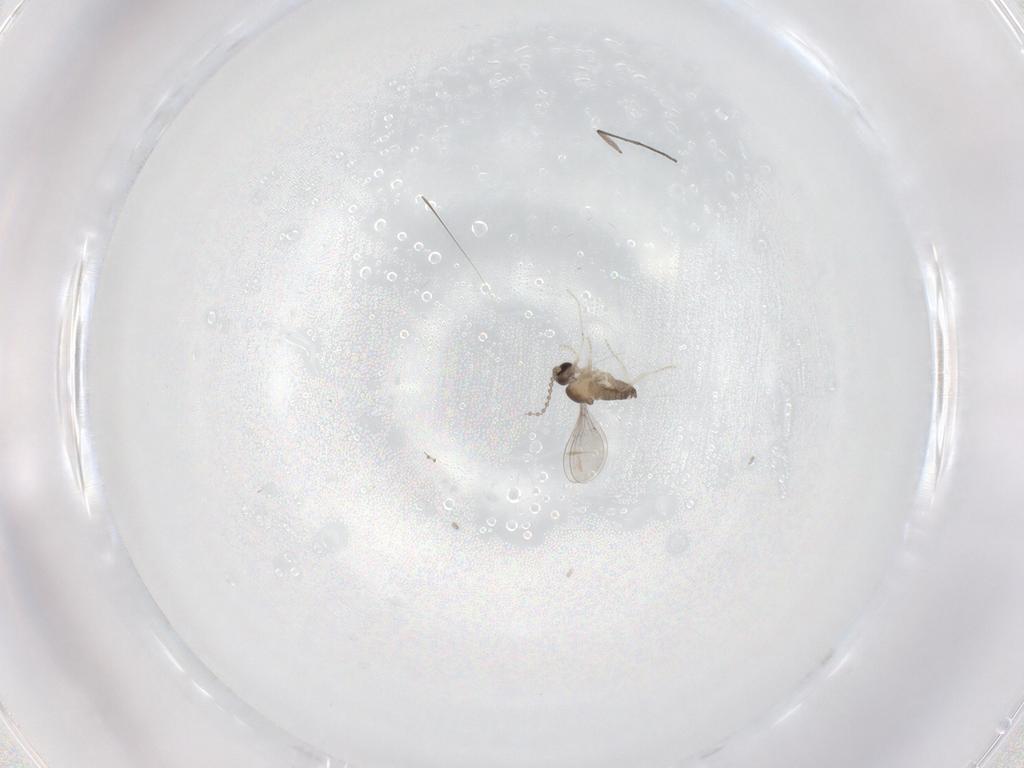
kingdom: Animalia
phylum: Arthropoda
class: Insecta
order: Diptera
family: Cecidomyiidae
